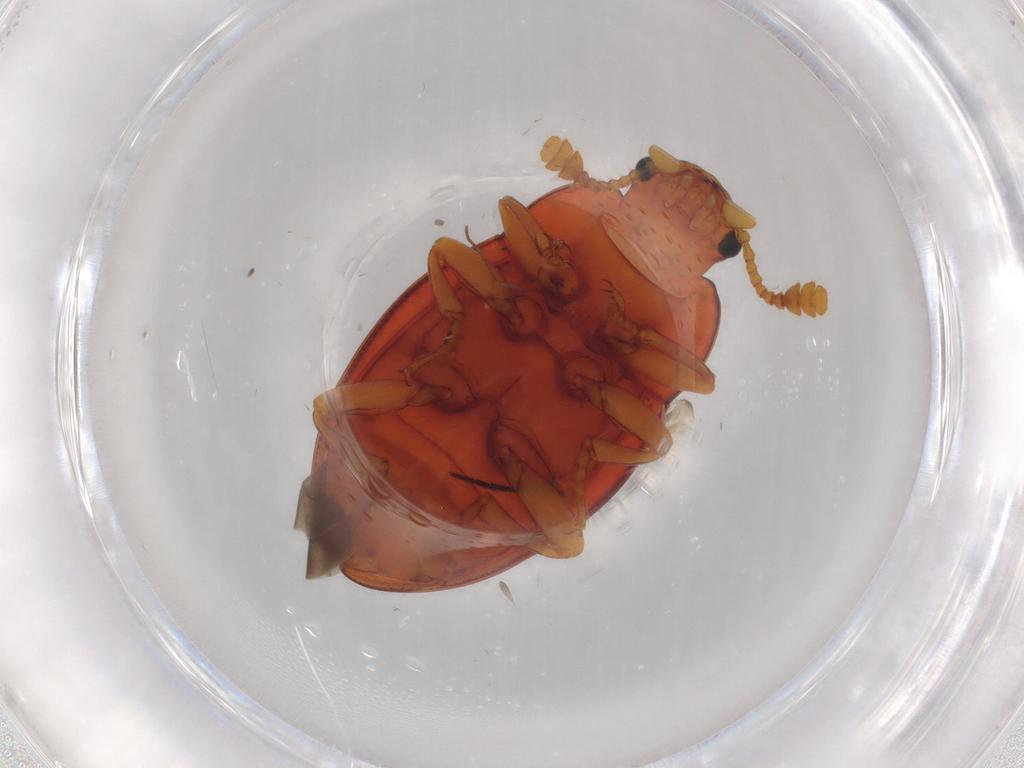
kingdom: Animalia
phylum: Arthropoda
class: Insecta
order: Coleoptera
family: Erotylidae
